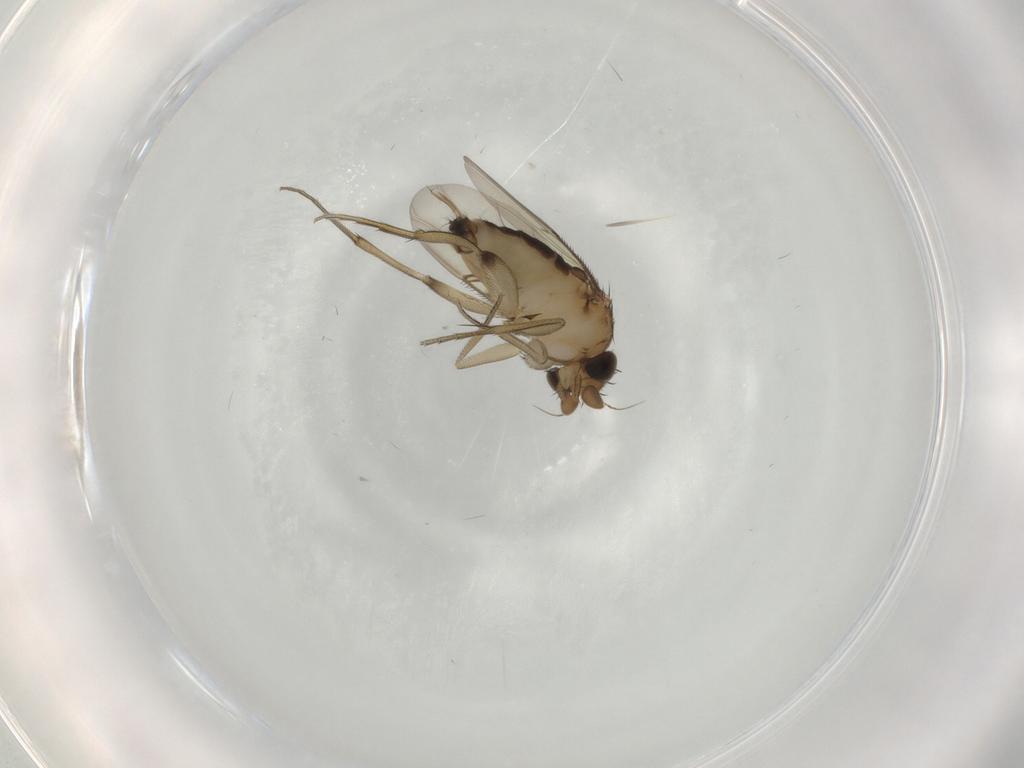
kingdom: Animalia
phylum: Arthropoda
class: Insecta
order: Diptera
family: Phoridae
